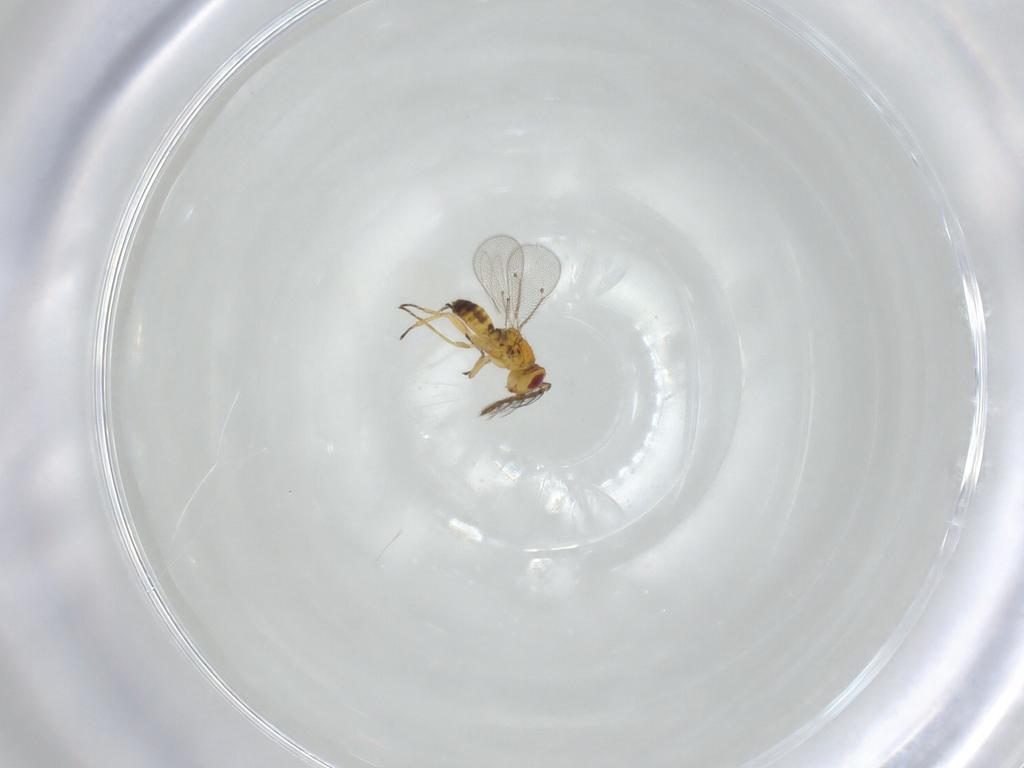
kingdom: Animalia
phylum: Arthropoda
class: Insecta
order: Hymenoptera
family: Eulophidae
